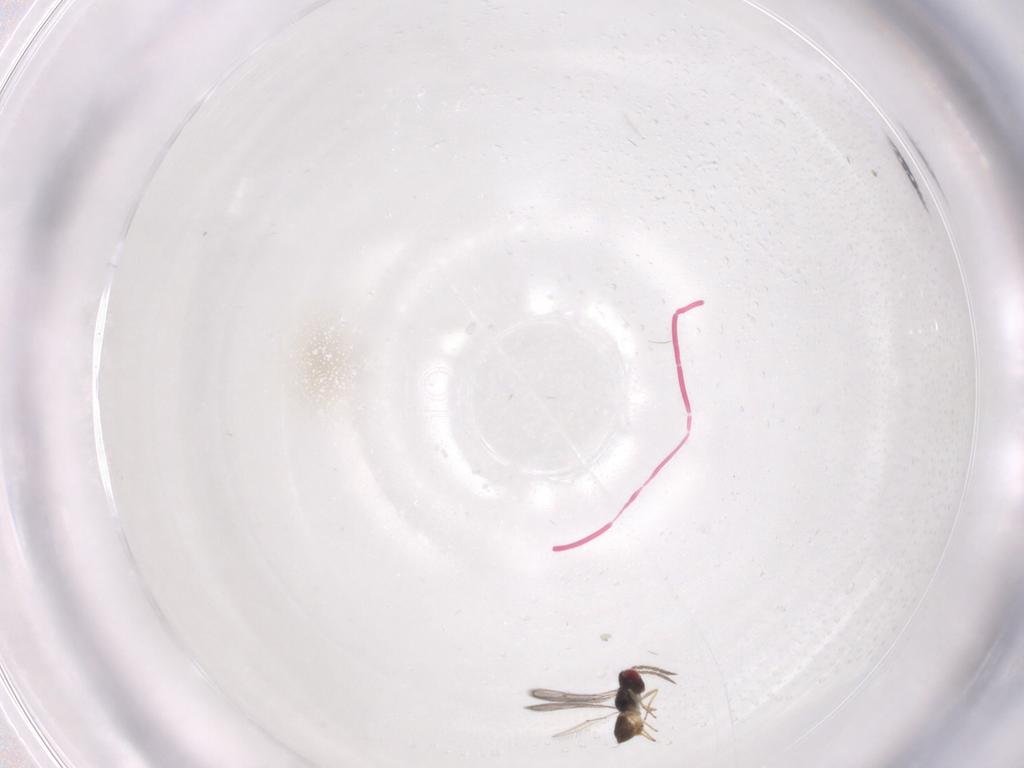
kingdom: Animalia
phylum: Arthropoda
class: Insecta
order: Hymenoptera
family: Eulophidae
